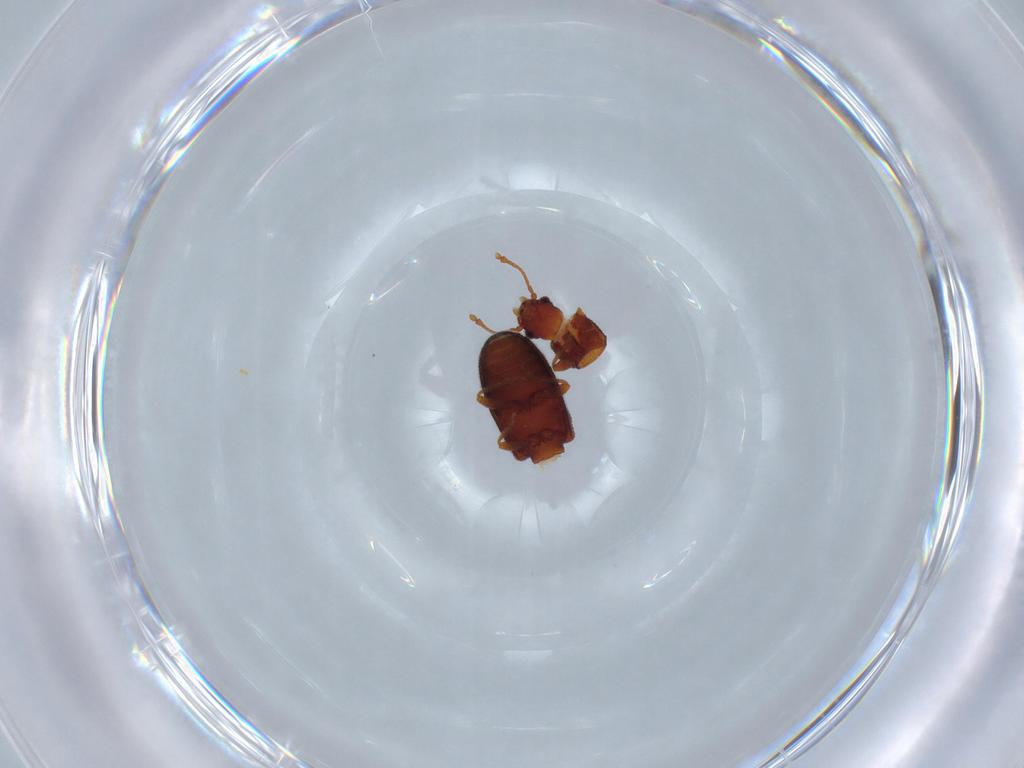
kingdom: Animalia
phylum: Arthropoda
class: Insecta
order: Coleoptera
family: Mycetophagidae
